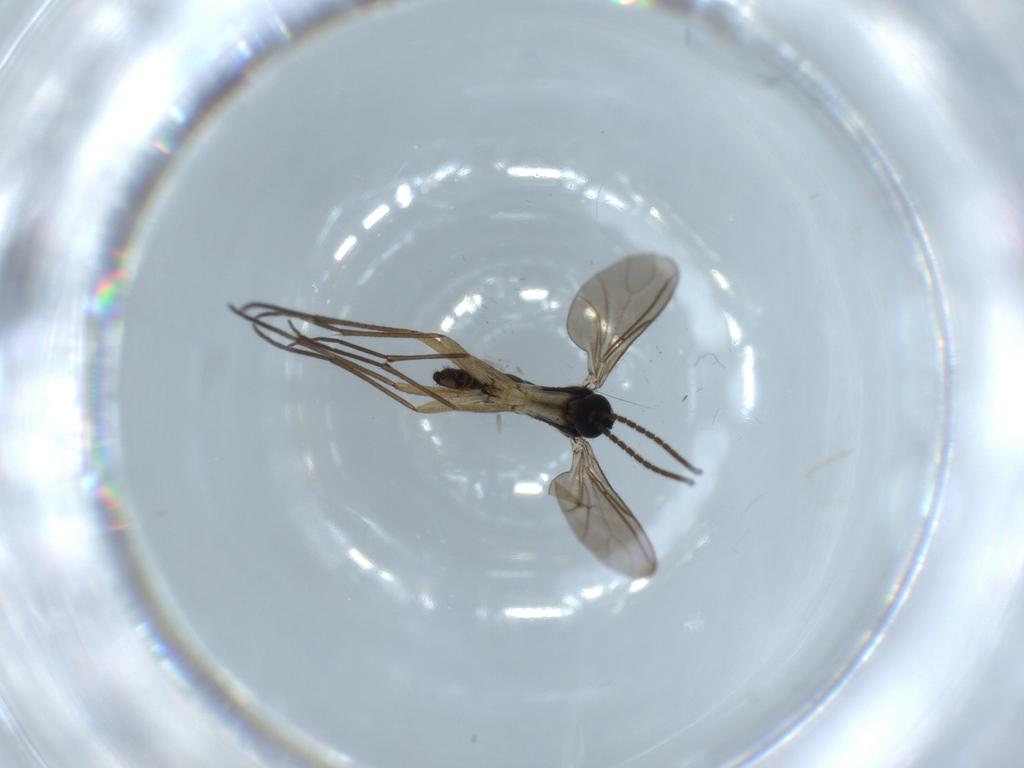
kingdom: Animalia
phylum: Arthropoda
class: Insecta
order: Diptera
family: Sciaridae
